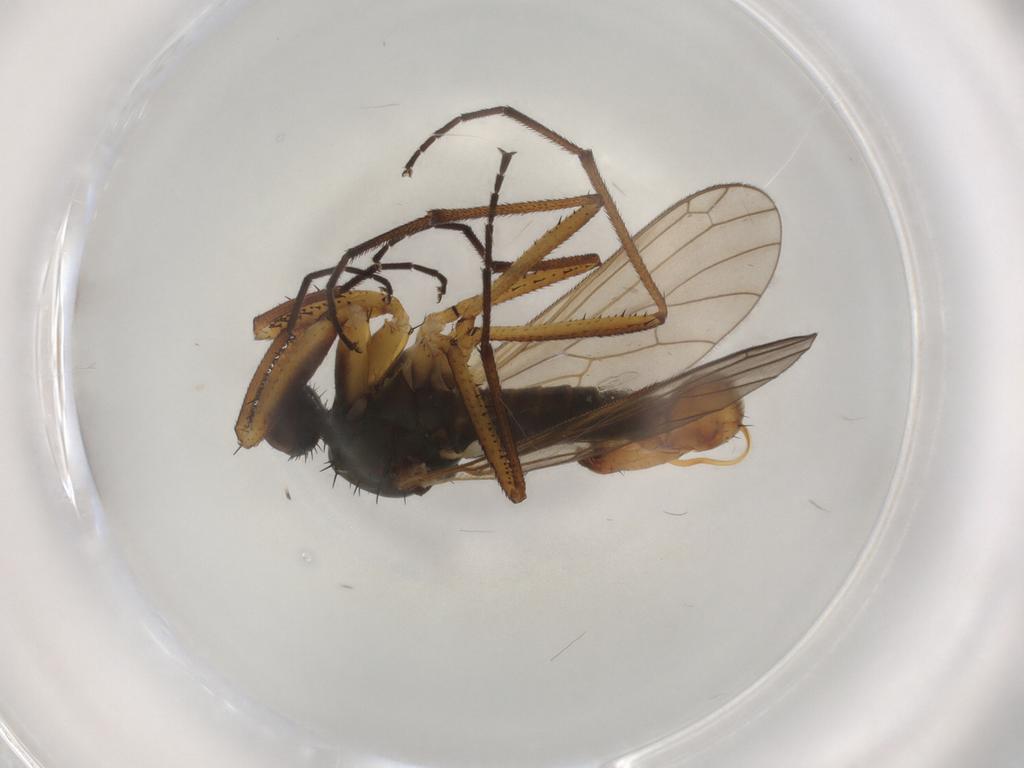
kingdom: Animalia
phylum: Arthropoda
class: Insecta
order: Diptera
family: Empididae
